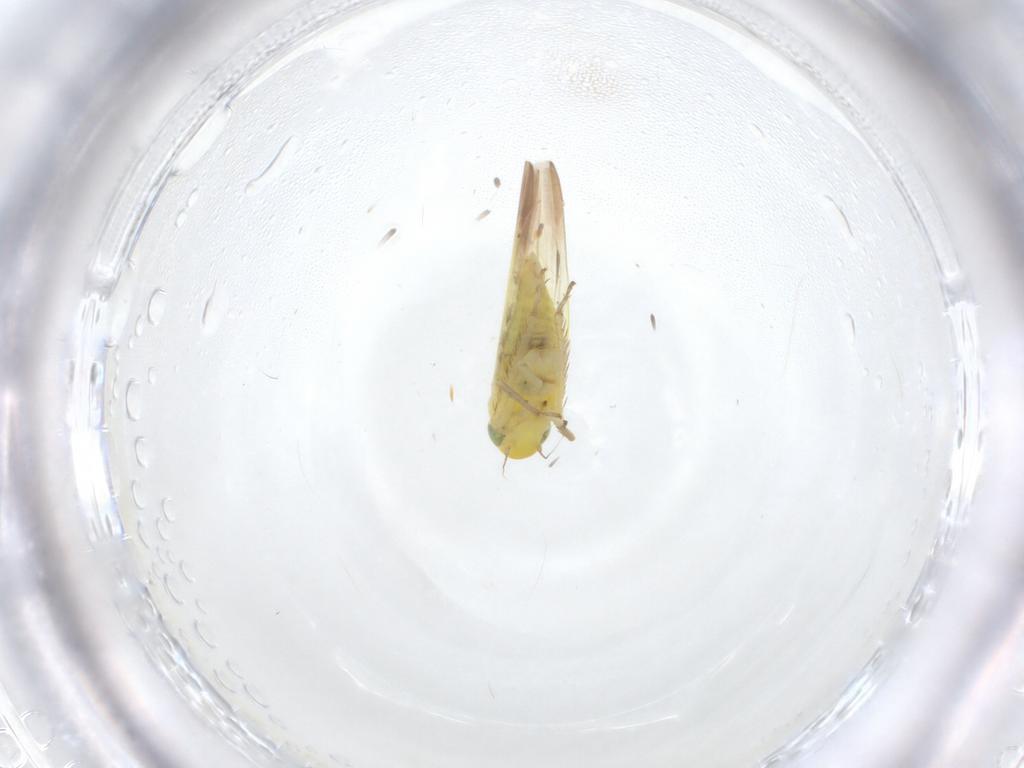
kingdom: Animalia
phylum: Arthropoda
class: Insecta
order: Hemiptera
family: Aleyrodidae
